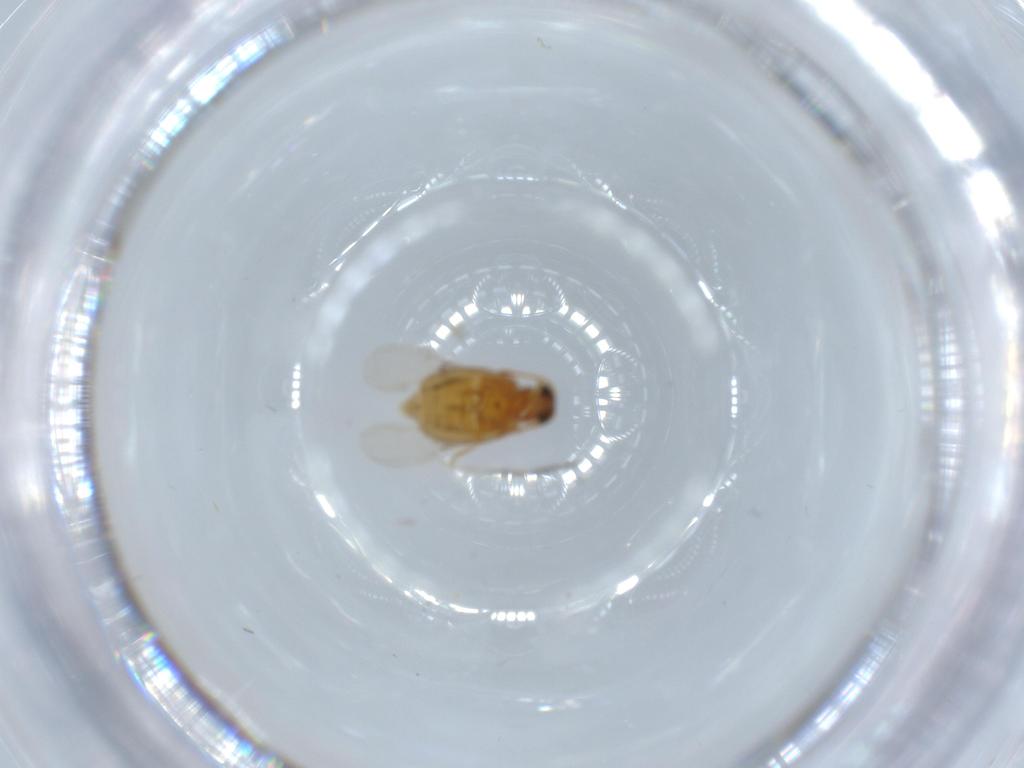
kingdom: Animalia
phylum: Arthropoda
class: Insecta
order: Coleoptera
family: Aderidae
